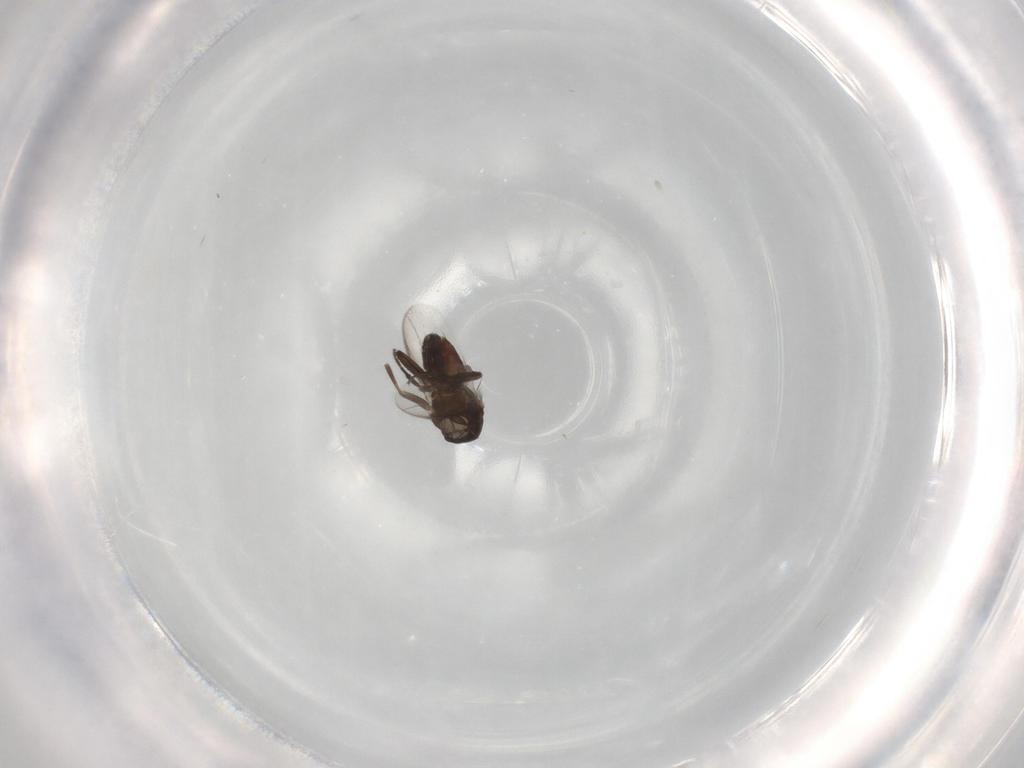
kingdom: Animalia
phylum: Arthropoda
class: Insecta
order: Diptera
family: Sphaeroceridae
